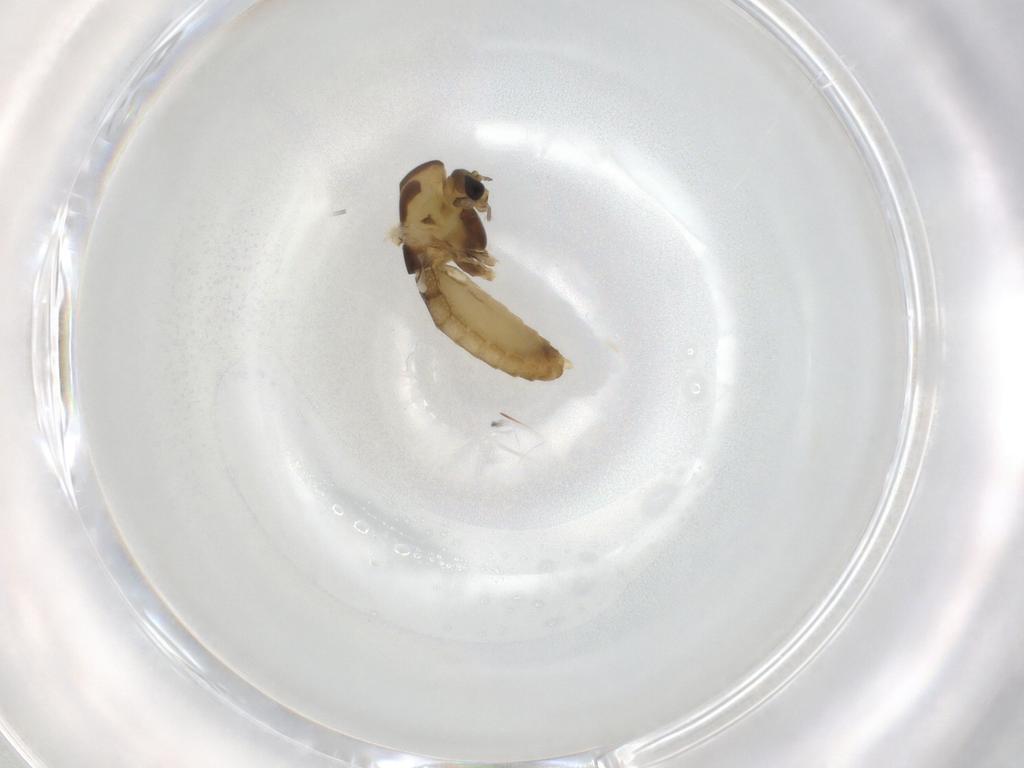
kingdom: Animalia
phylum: Arthropoda
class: Insecta
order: Diptera
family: Chironomidae
